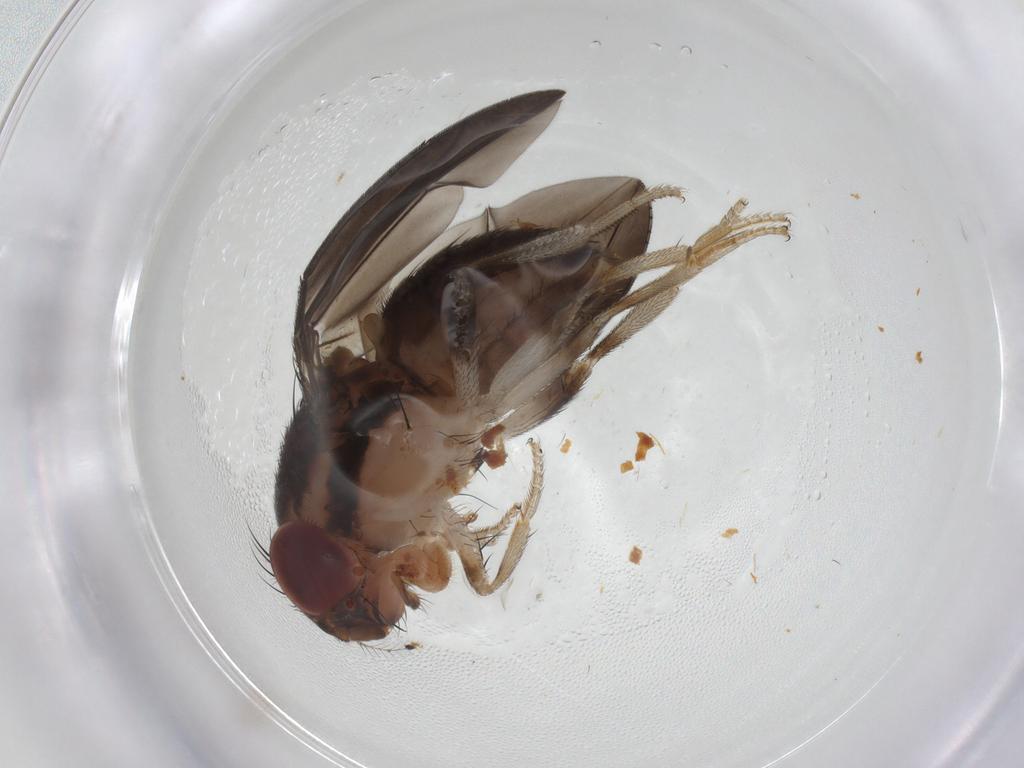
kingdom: Animalia
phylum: Arthropoda
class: Insecta
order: Diptera
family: Drosophilidae
